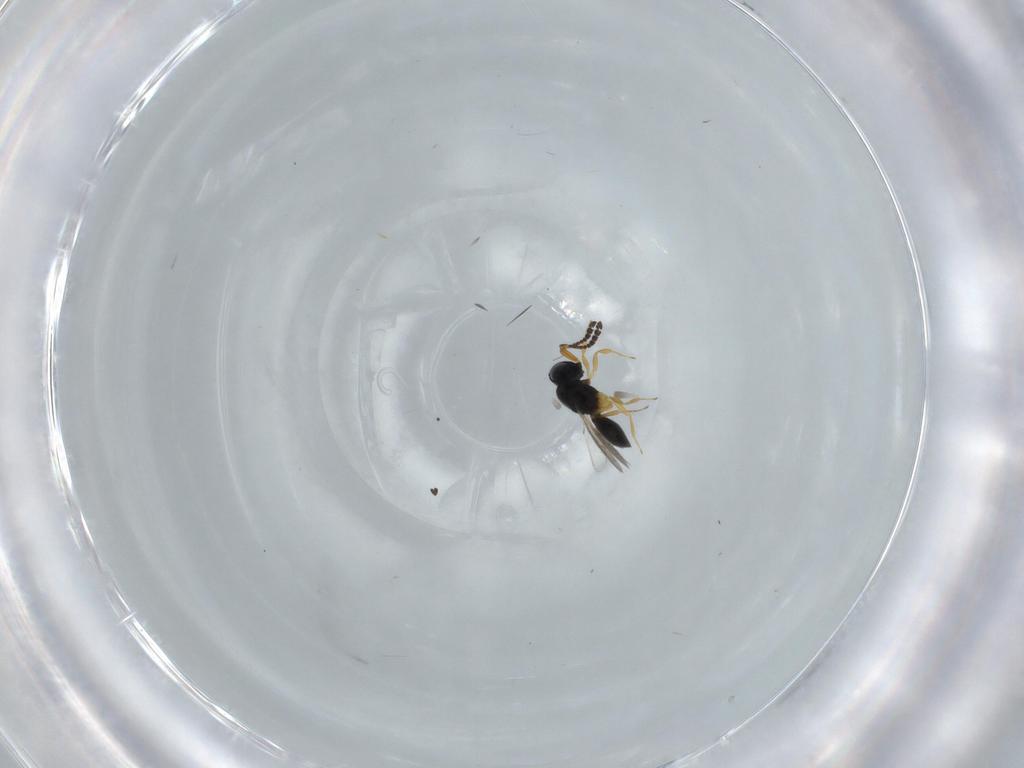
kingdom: Animalia
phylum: Arthropoda
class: Insecta
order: Hymenoptera
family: Scelionidae
